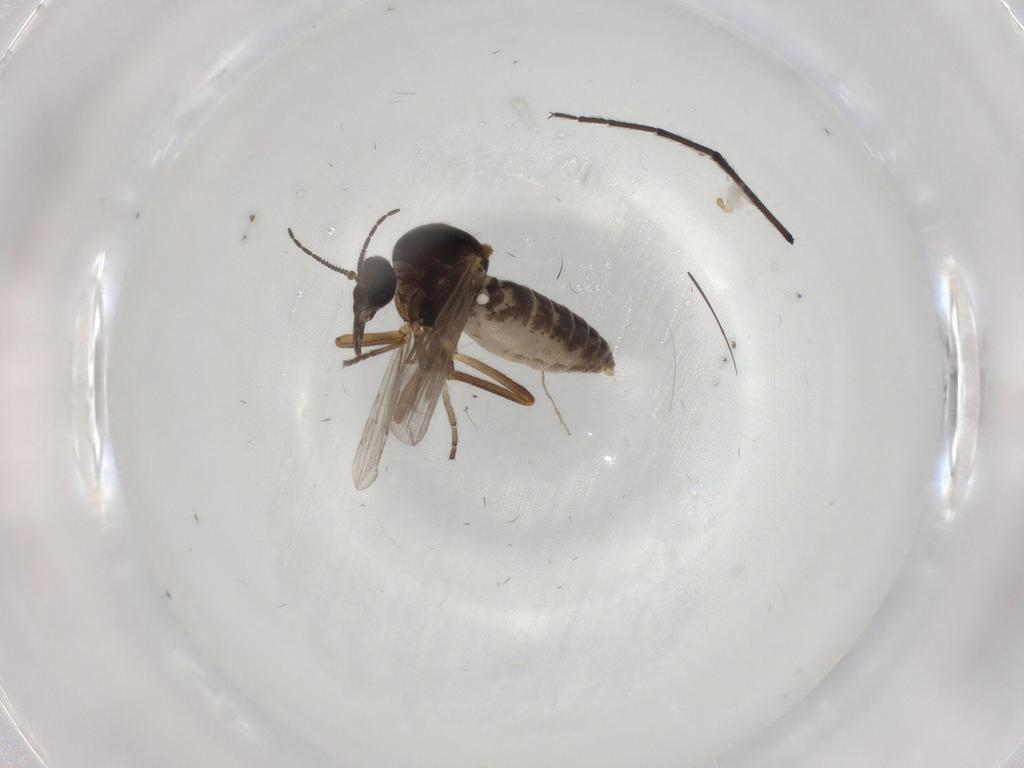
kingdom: Animalia
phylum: Arthropoda
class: Insecta
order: Diptera
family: Ceratopogonidae
